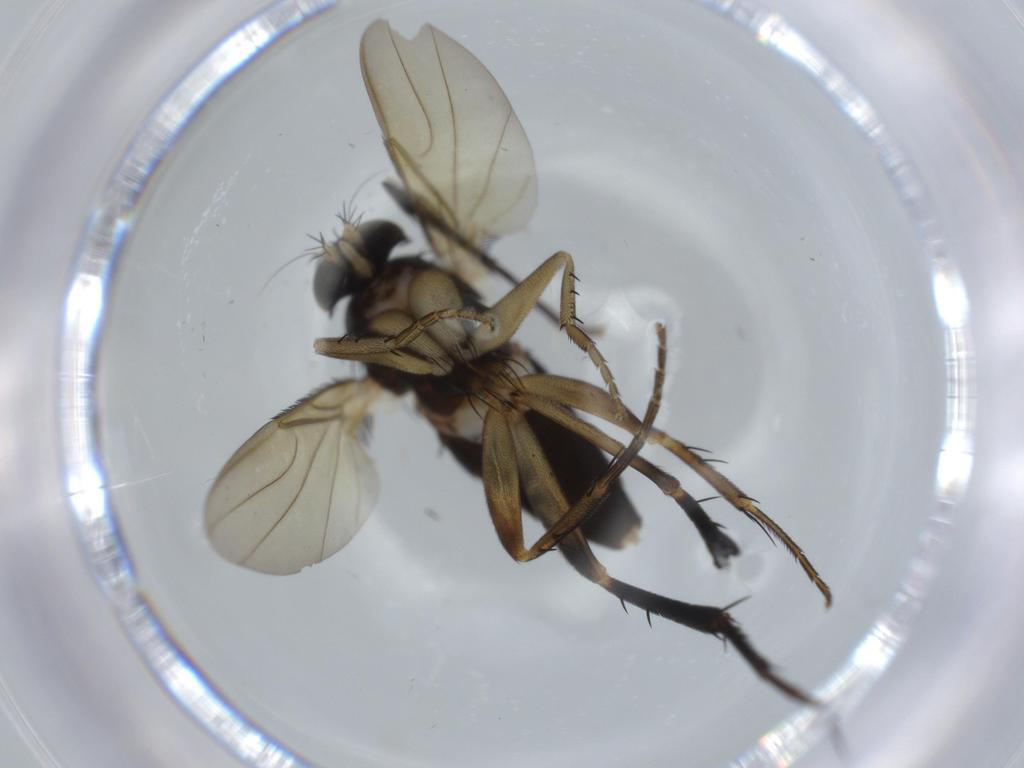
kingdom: Animalia
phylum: Arthropoda
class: Insecta
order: Diptera
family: Phoridae
